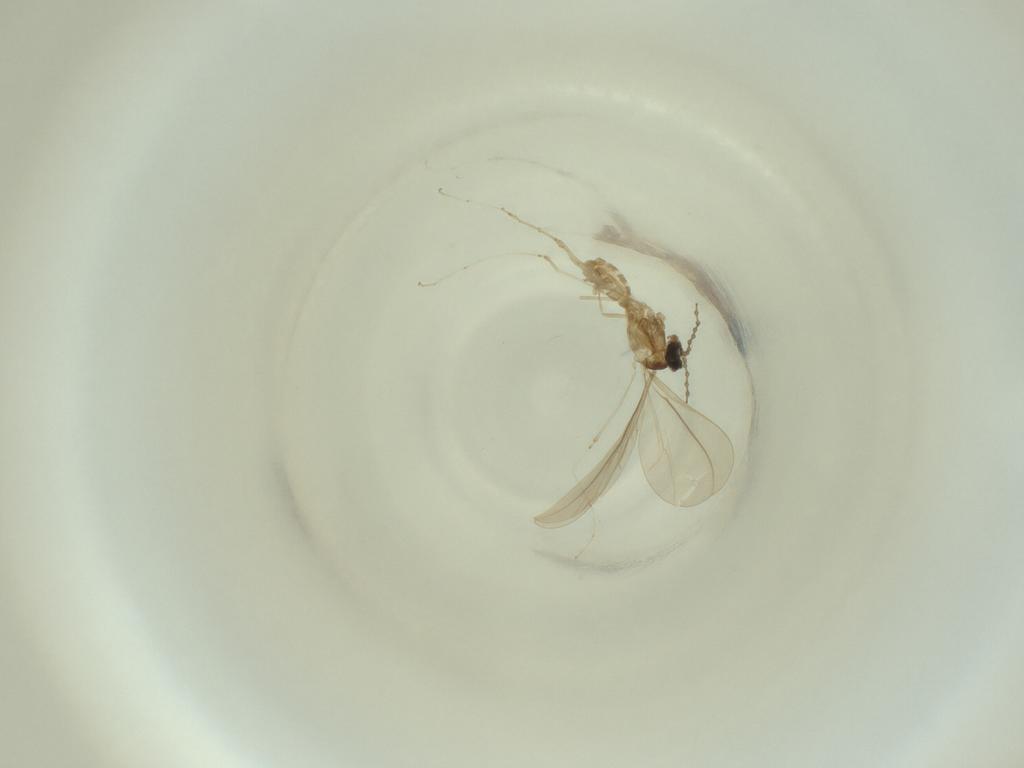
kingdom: Animalia
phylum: Arthropoda
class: Insecta
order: Diptera
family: Cecidomyiidae
